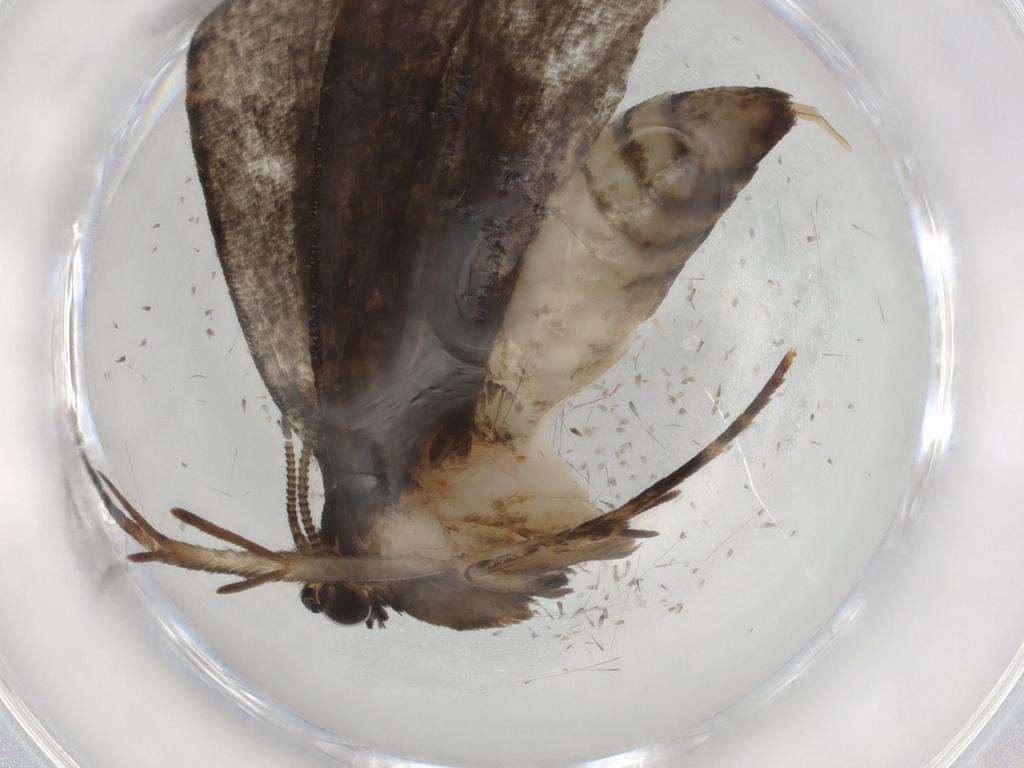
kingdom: Animalia
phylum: Arthropoda
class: Insecta
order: Lepidoptera
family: Tineidae
